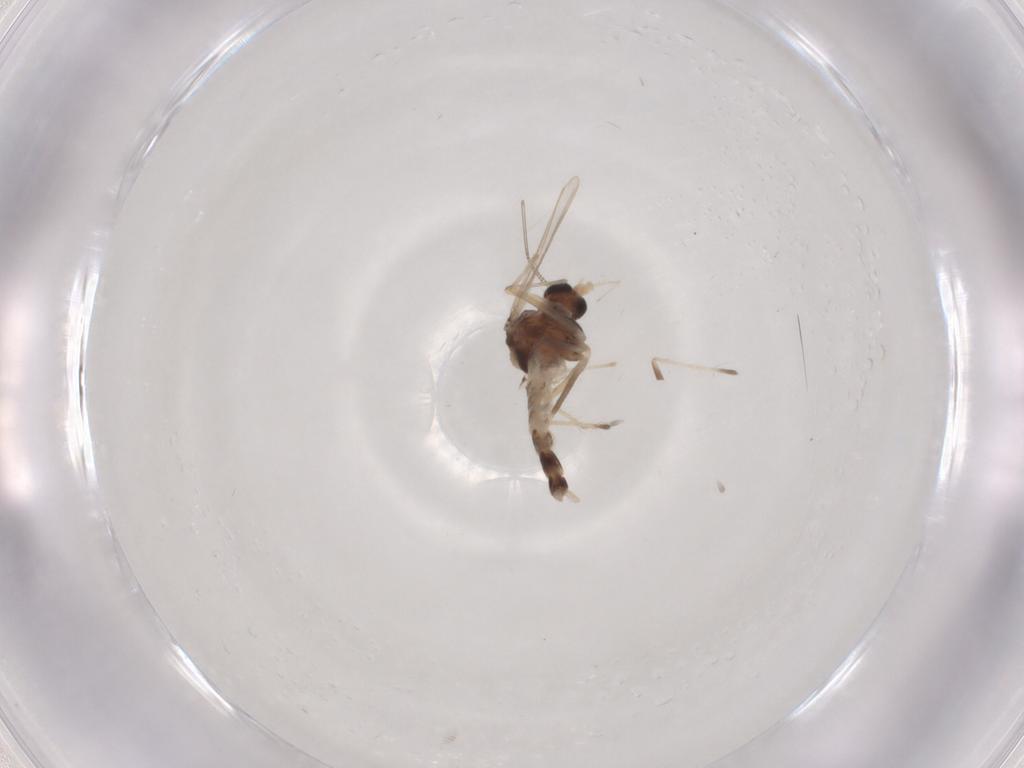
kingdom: Animalia
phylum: Arthropoda
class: Insecta
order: Diptera
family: Chironomidae
